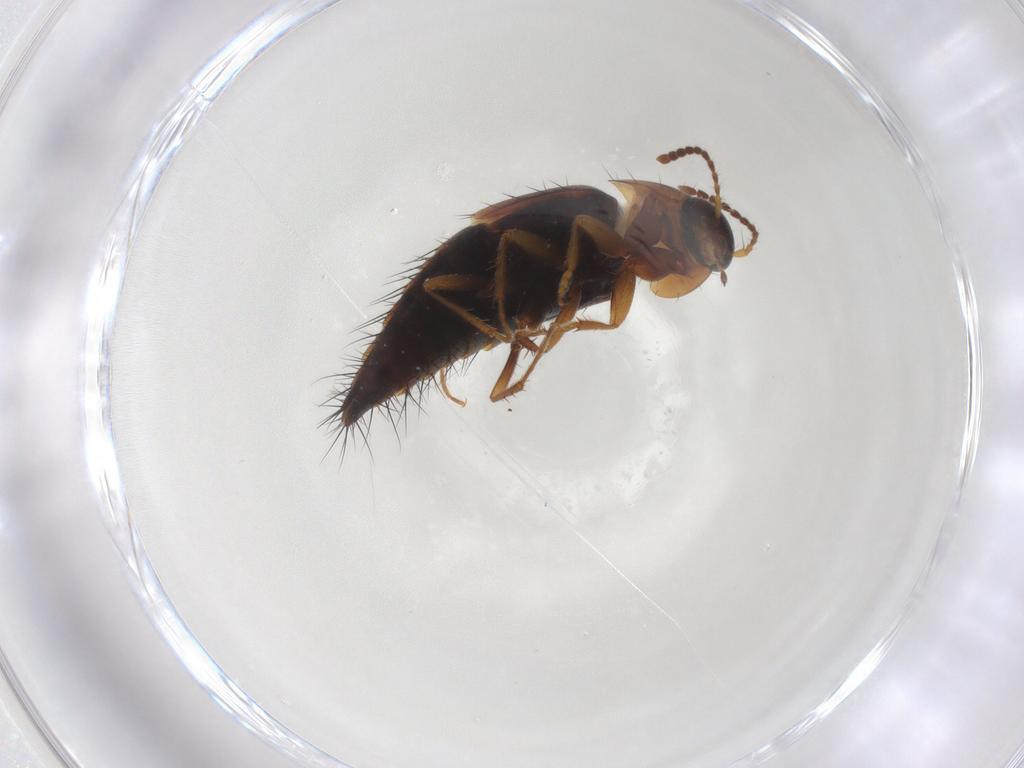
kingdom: Animalia
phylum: Arthropoda
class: Insecta
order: Coleoptera
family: Staphylinidae
